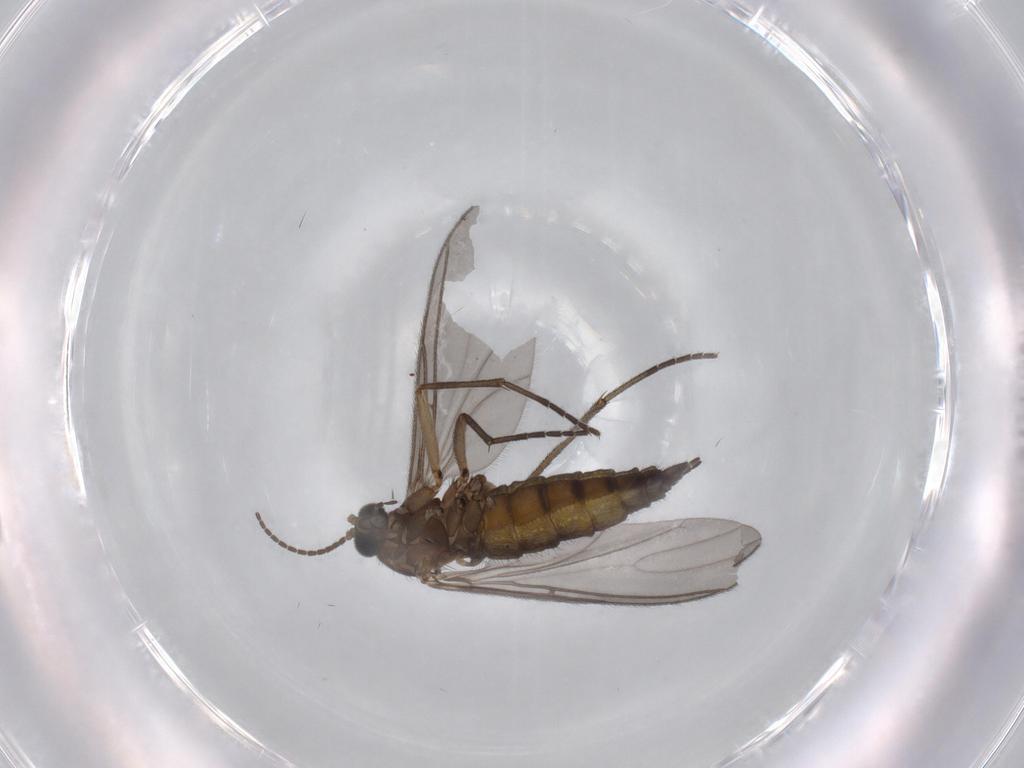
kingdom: Animalia
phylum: Arthropoda
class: Insecta
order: Diptera
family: Sciaridae
